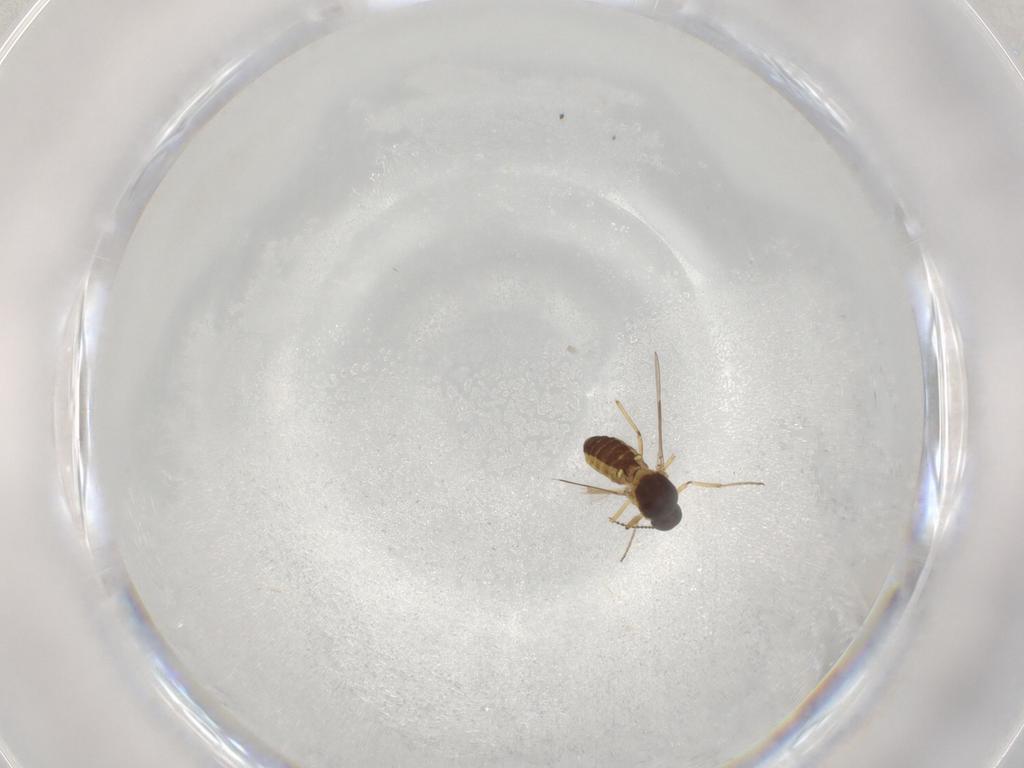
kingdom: Animalia
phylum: Arthropoda
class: Insecta
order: Diptera
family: Ceratopogonidae
